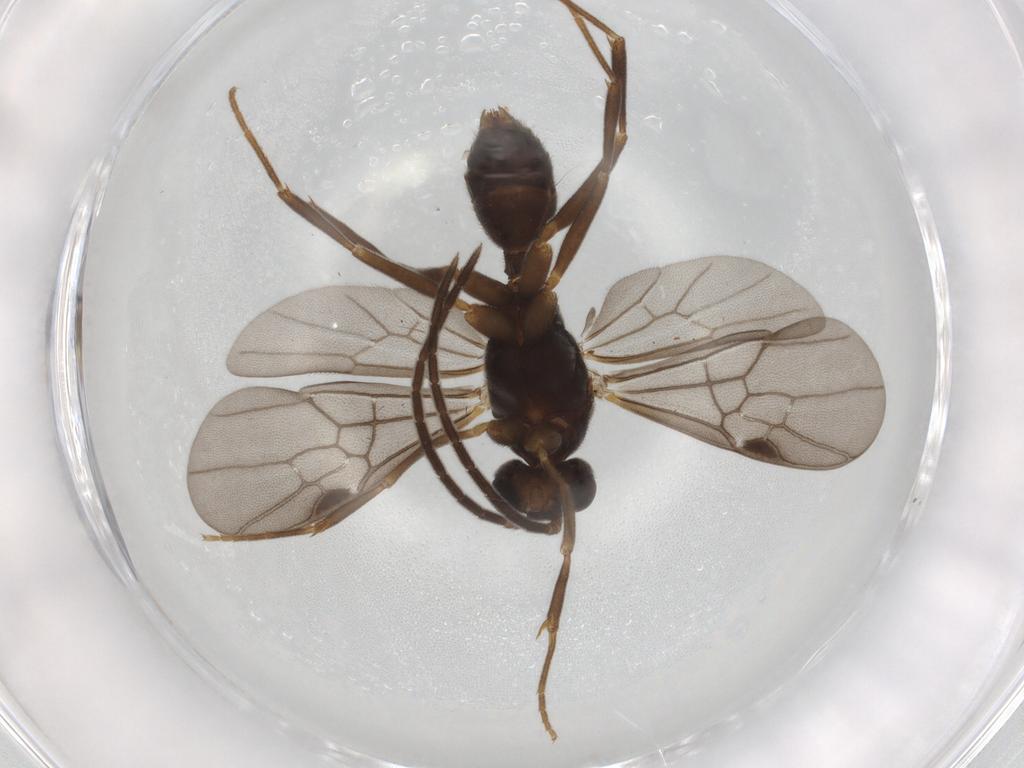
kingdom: Animalia
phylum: Arthropoda
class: Insecta
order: Hymenoptera
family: Formicidae
